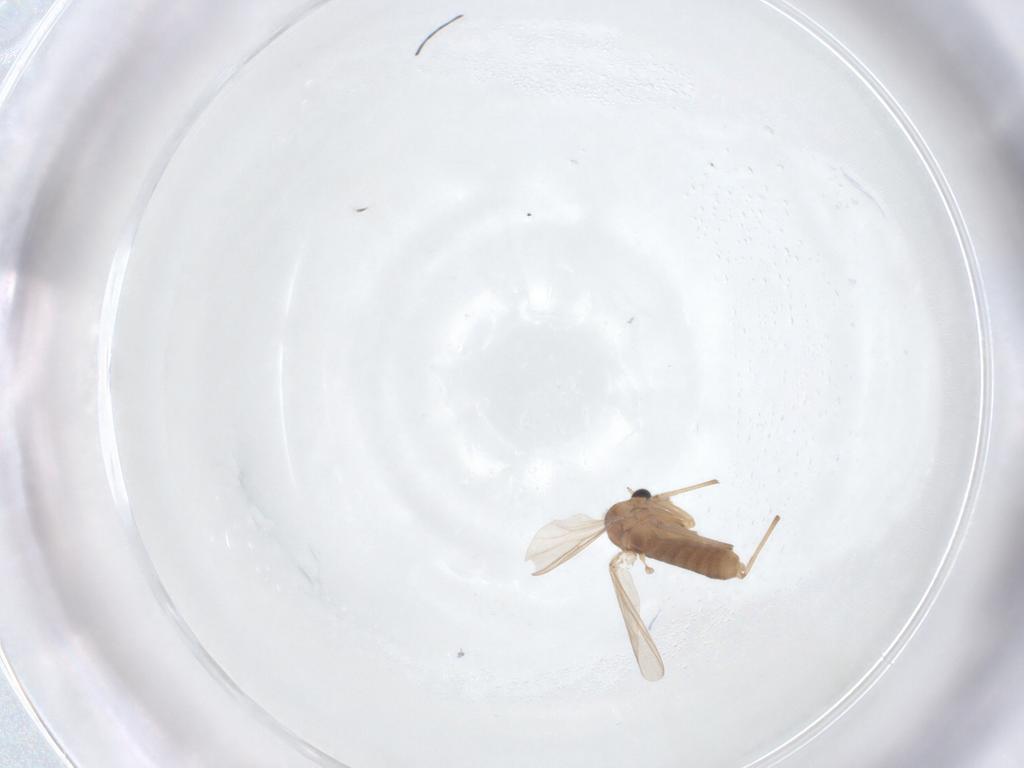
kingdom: Animalia
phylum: Arthropoda
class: Insecta
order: Diptera
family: Chironomidae
